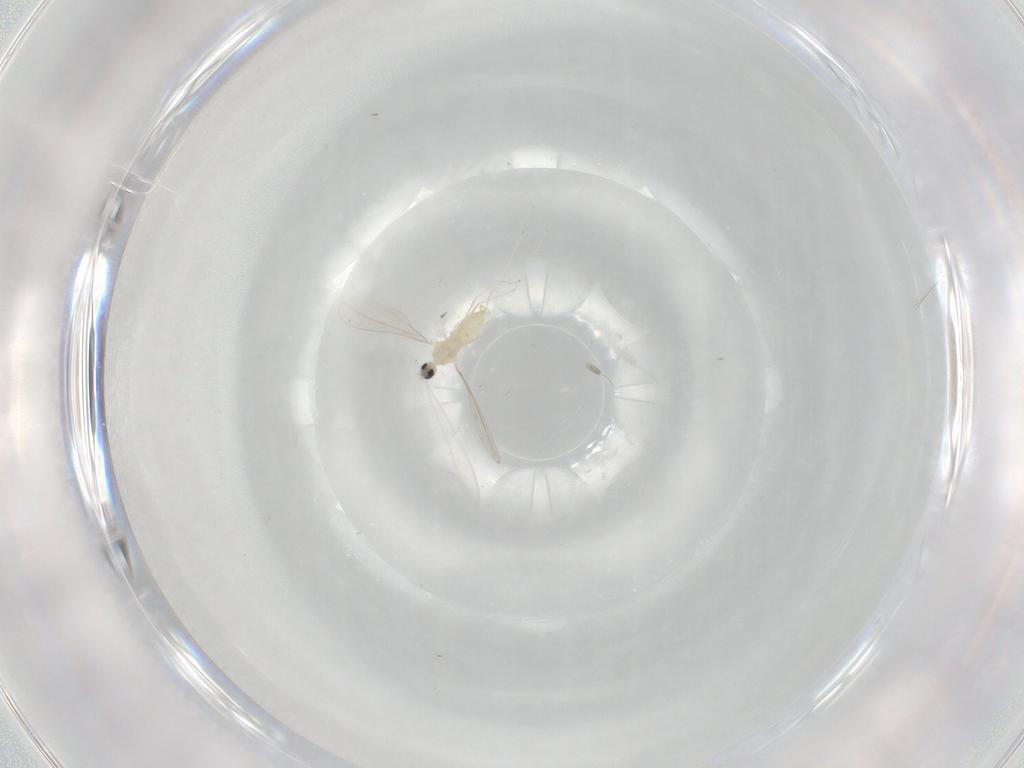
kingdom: Animalia
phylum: Arthropoda
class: Insecta
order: Diptera
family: Cecidomyiidae
